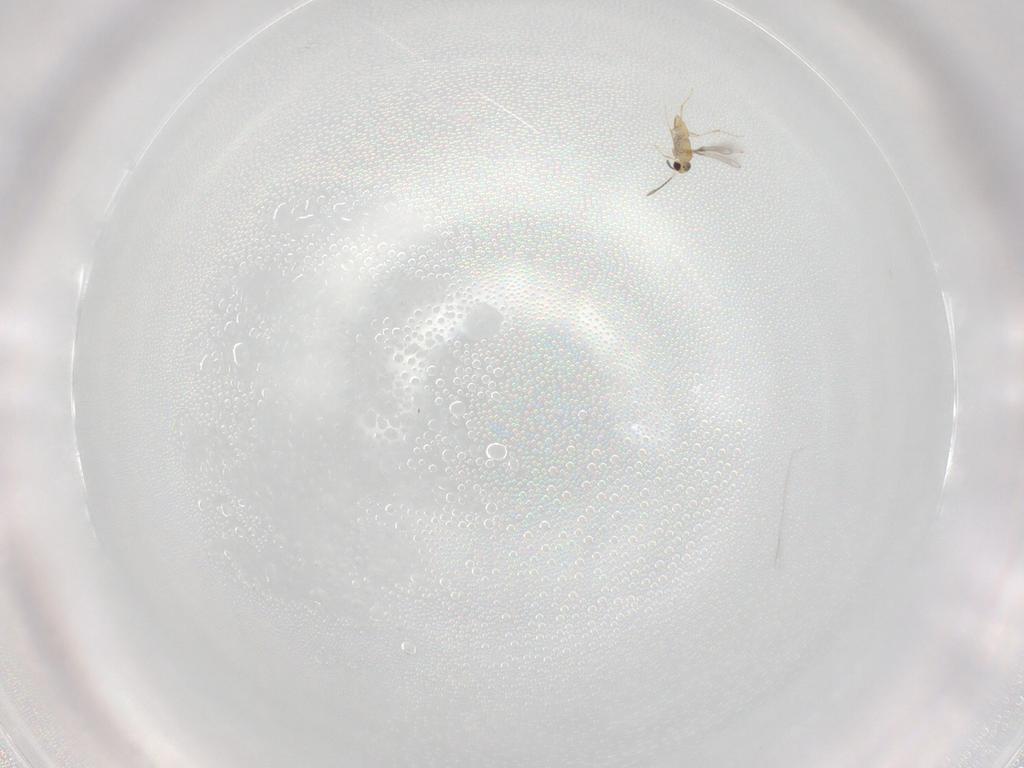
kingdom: Animalia
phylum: Arthropoda
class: Insecta
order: Hymenoptera
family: Mymaridae
